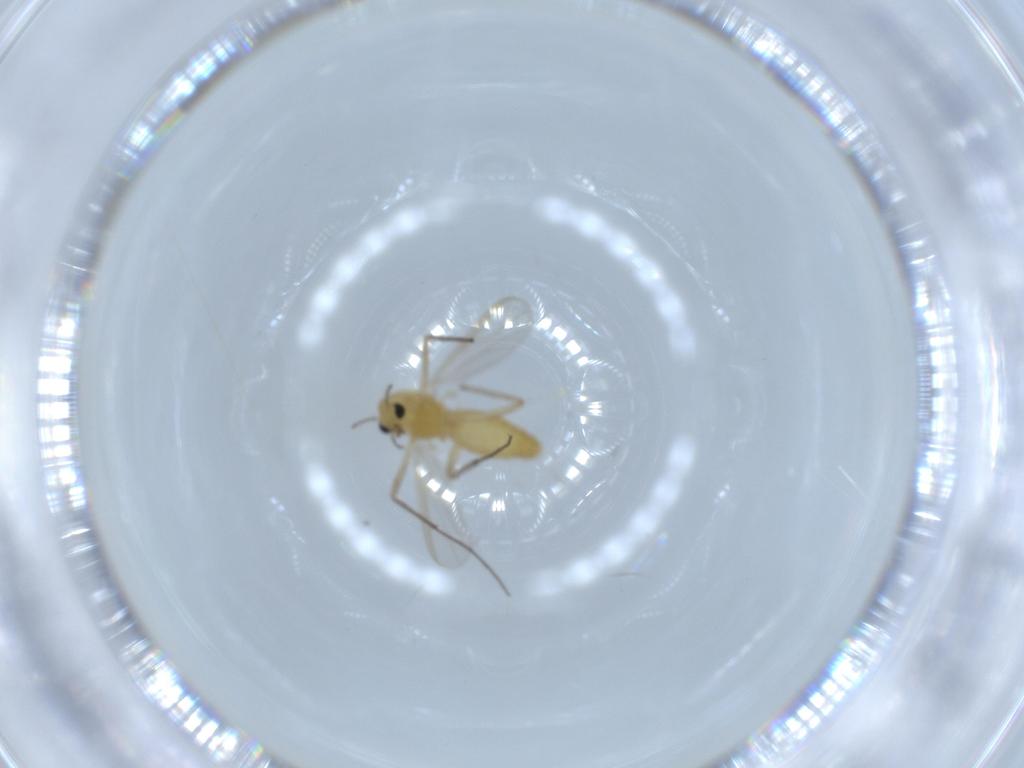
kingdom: Animalia
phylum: Arthropoda
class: Insecta
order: Diptera
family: Chironomidae
